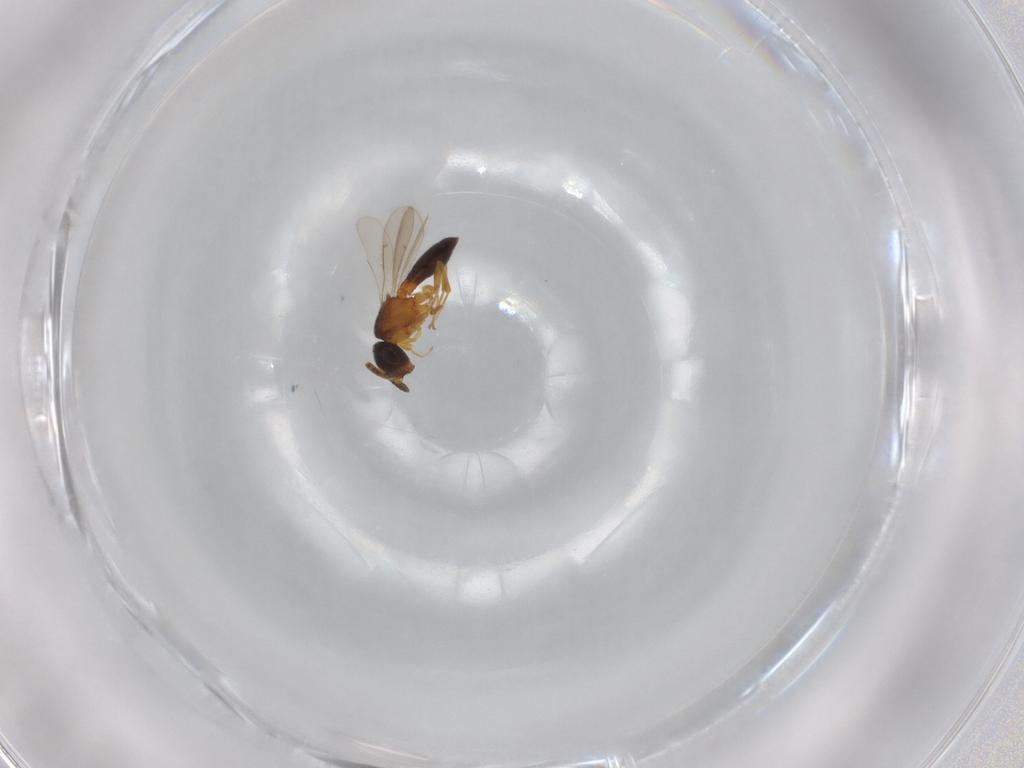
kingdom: Animalia
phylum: Arthropoda
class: Insecta
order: Hymenoptera
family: Scelionidae
